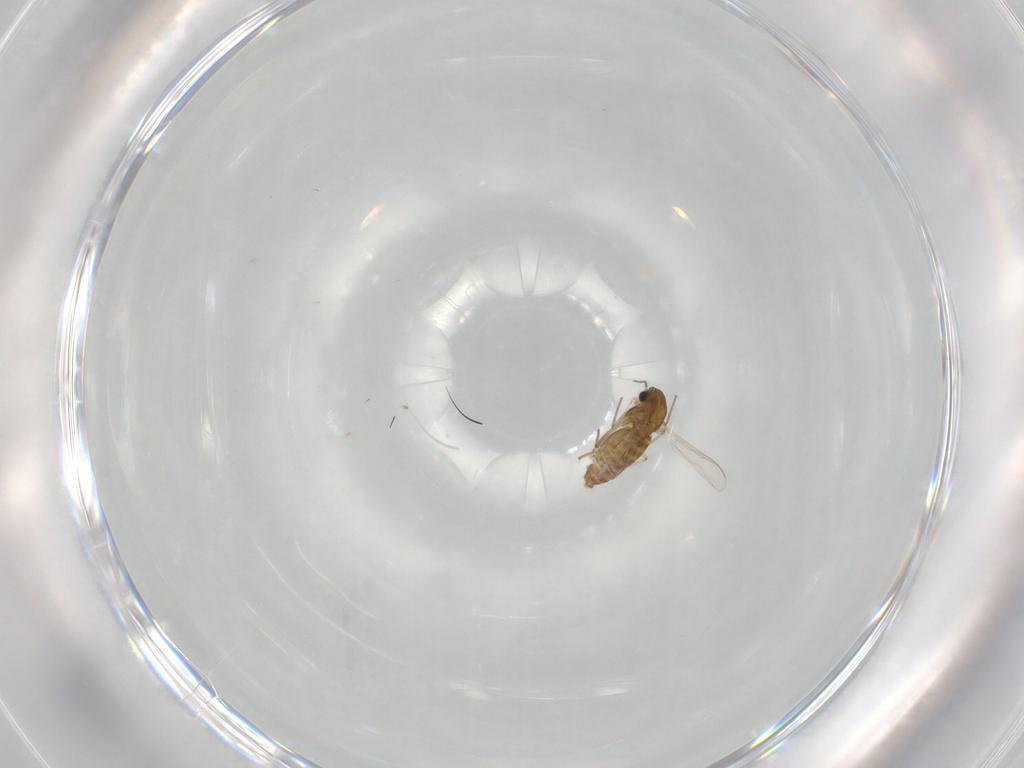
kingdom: Animalia
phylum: Arthropoda
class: Insecta
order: Diptera
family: Chironomidae
